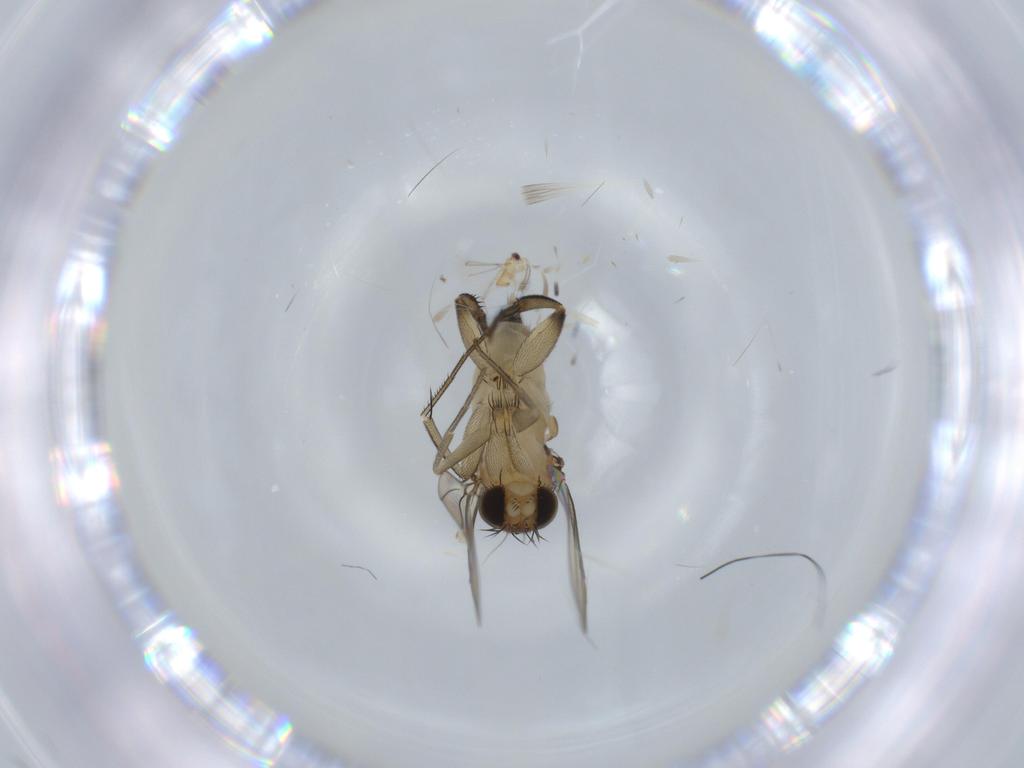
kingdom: Animalia
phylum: Arthropoda
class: Insecta
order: Diptera
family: Phoridae
